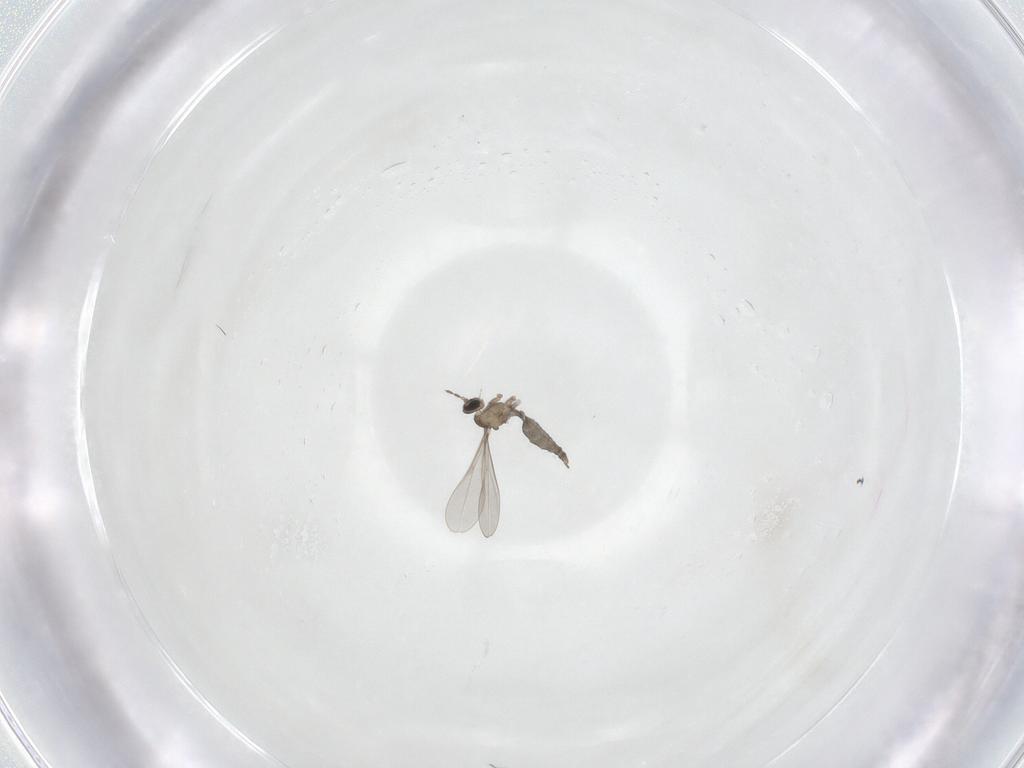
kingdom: Animalia
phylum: Arthropoda
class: Insecta
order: Diptera
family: Cecidomyiidae
